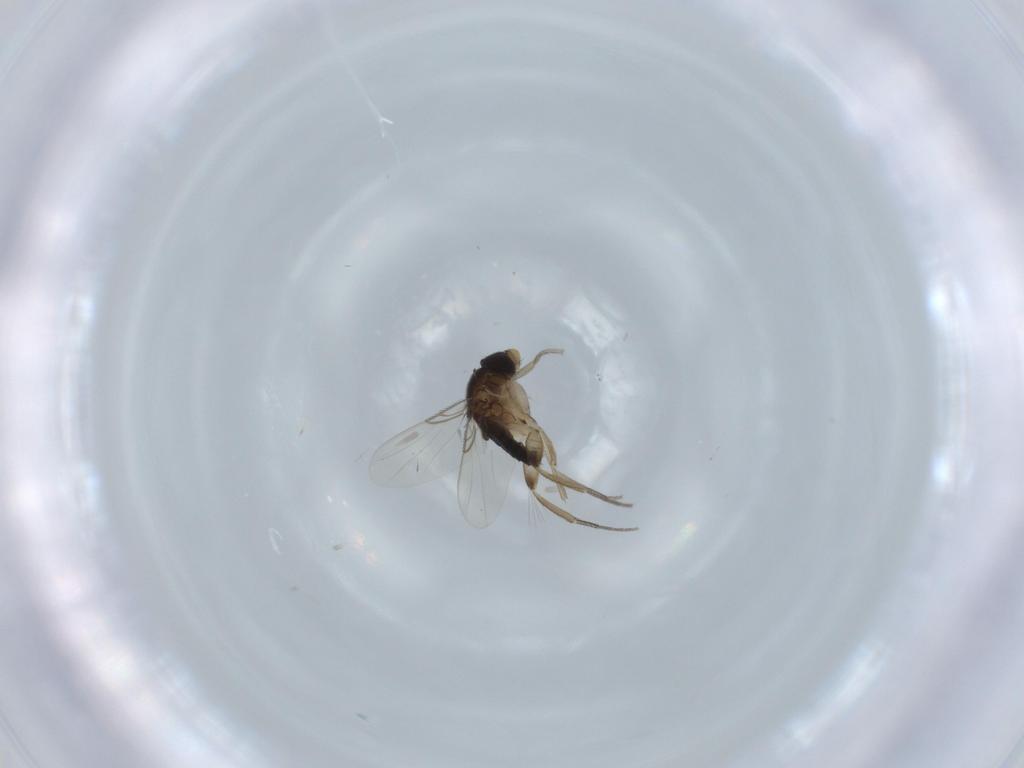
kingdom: Animalia
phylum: Arthropoda
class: Insecta
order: Diptera
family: Phoridae
